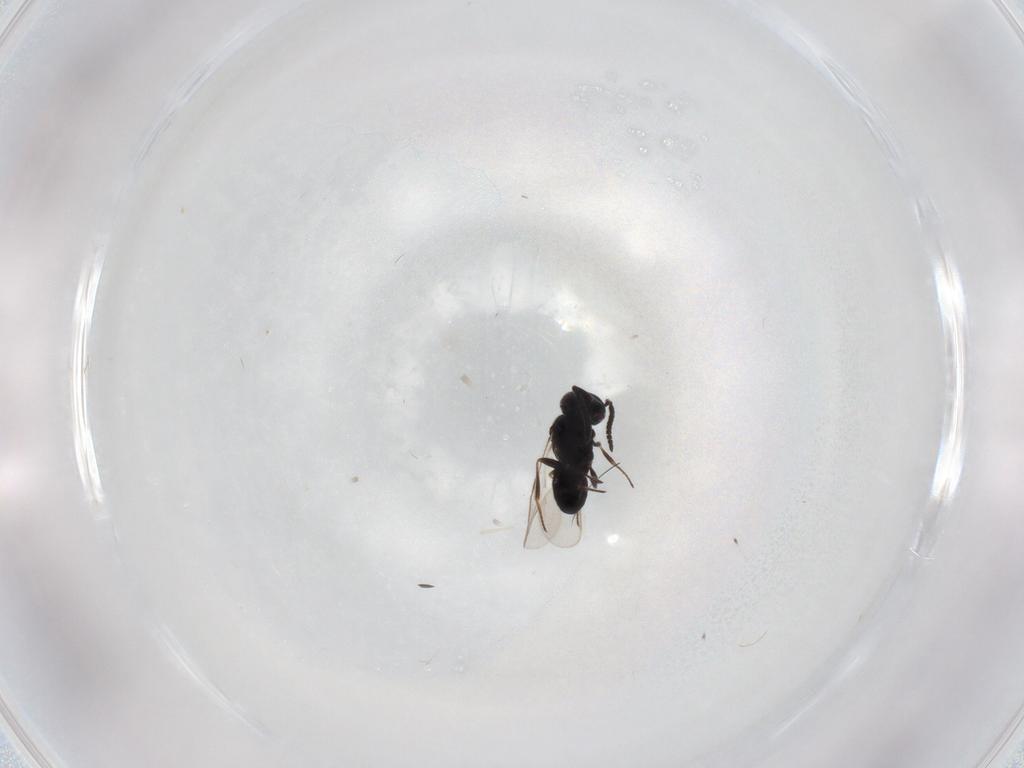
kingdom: Animalia
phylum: Arthropoda
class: Insecta
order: Hymenoptera
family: Scelionidae
